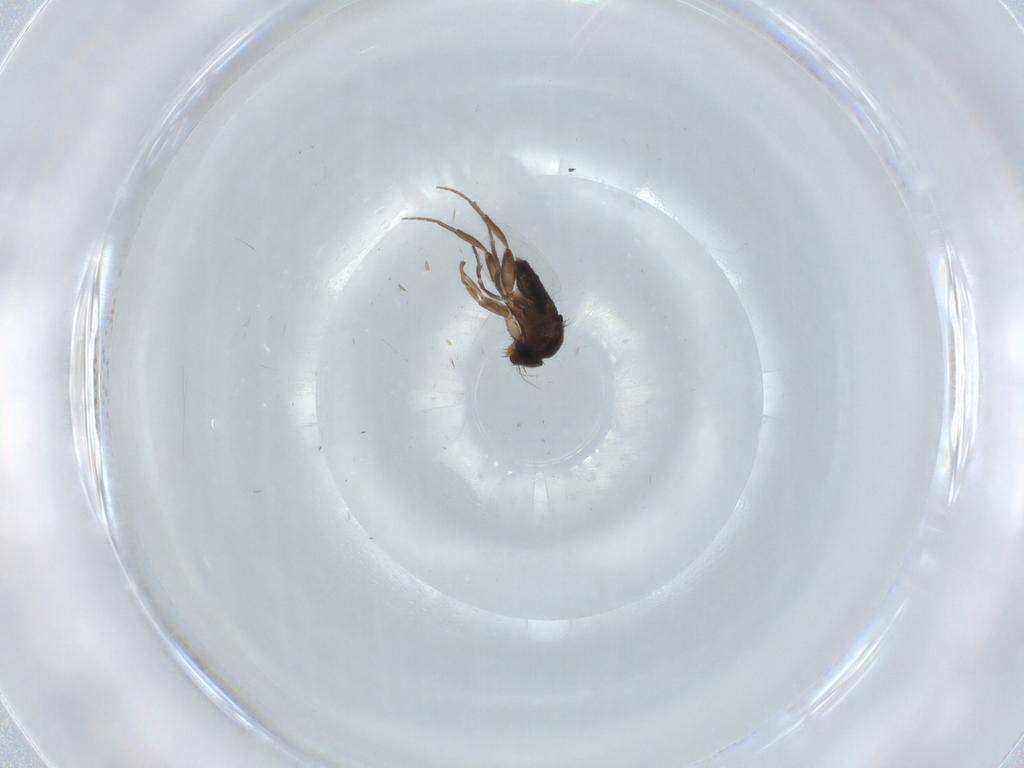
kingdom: Animalia
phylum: Arthropoda
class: Insecta
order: Diptera
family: Phoridae
